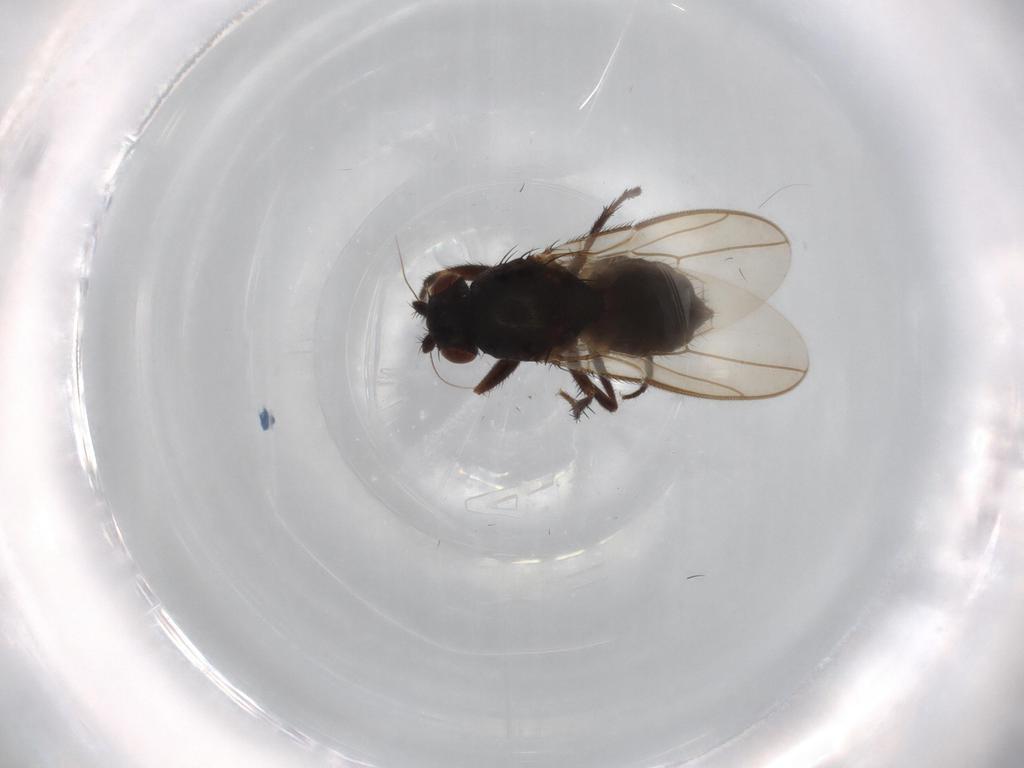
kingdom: Animalia
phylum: Arthropoda
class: Insecta
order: Diptera
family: Sphaeroceridae
